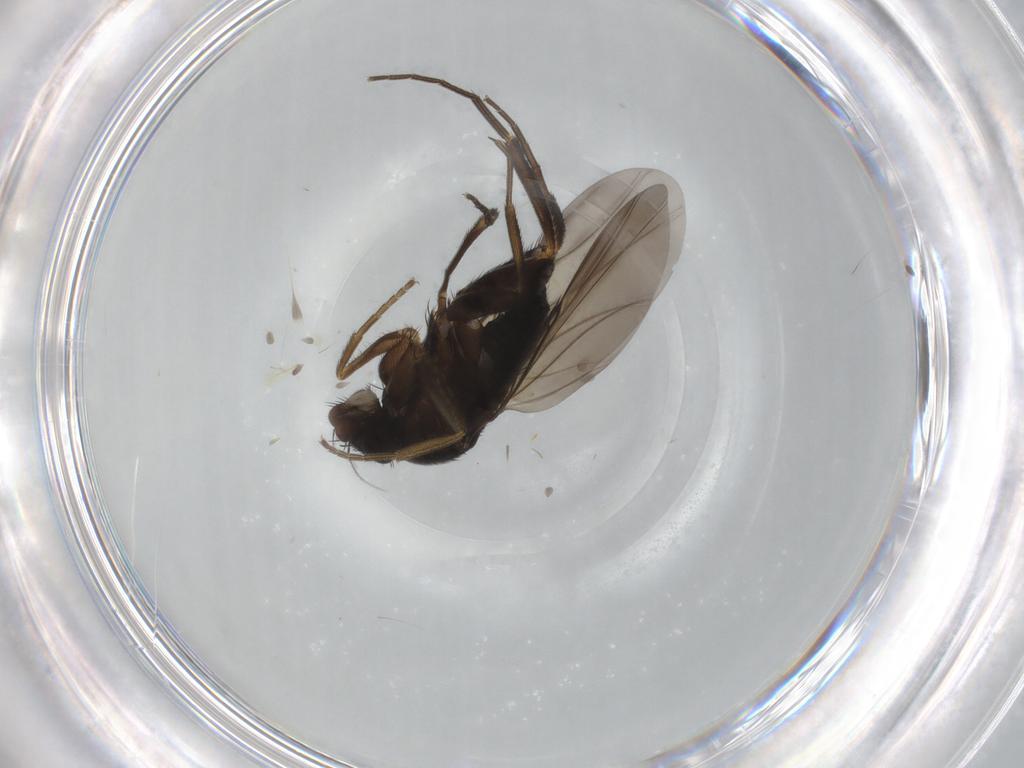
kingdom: Animalia
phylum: Arthropoda
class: Insecta
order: Diptera
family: Phoridae
